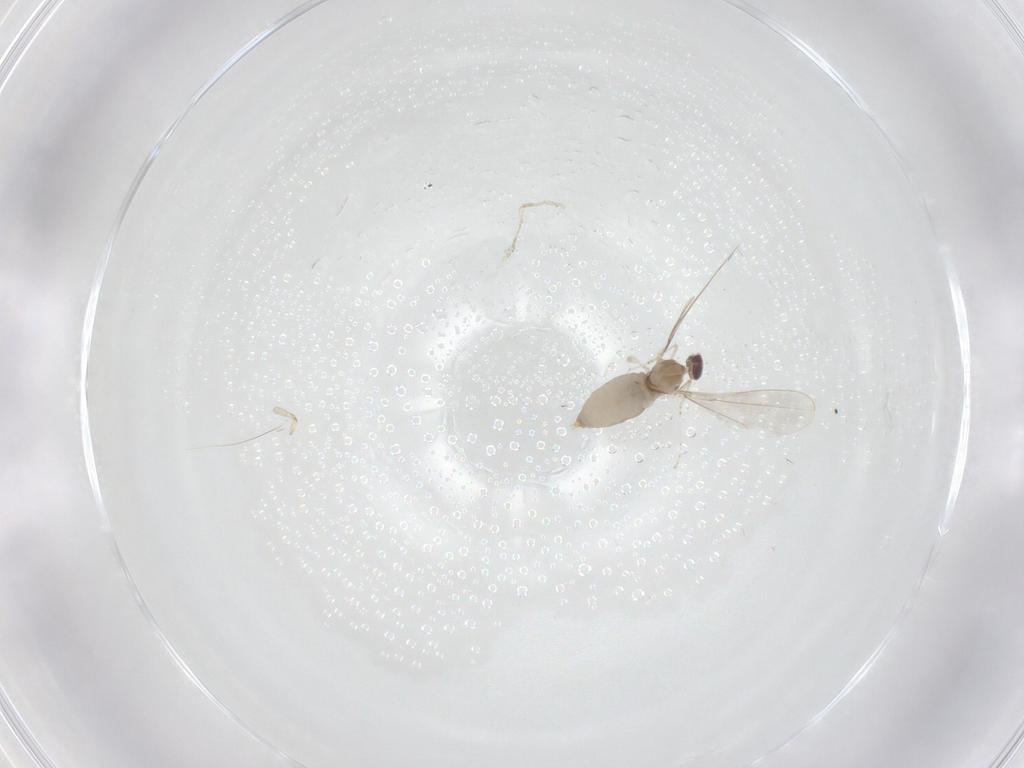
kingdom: Animalia
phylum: Arthropoda
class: Insecta
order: Diptera
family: Cecidomyiidae
